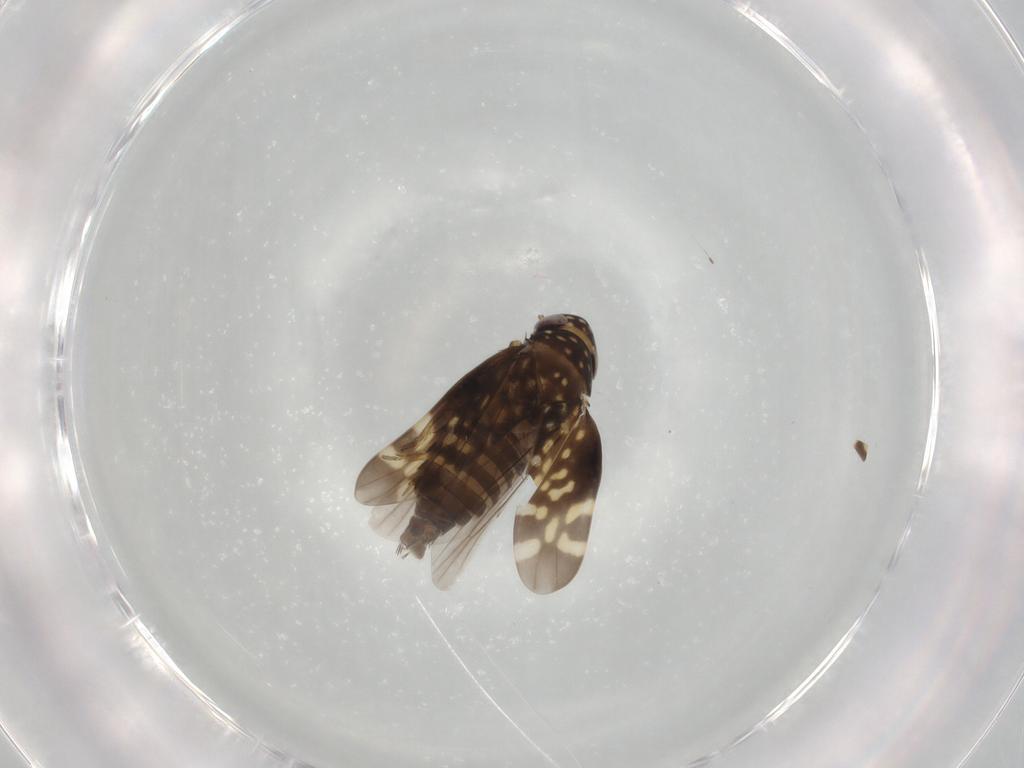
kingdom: Animalia
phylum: Arthropoda
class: Insecta
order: Hemiptera
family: Cicadellidae
